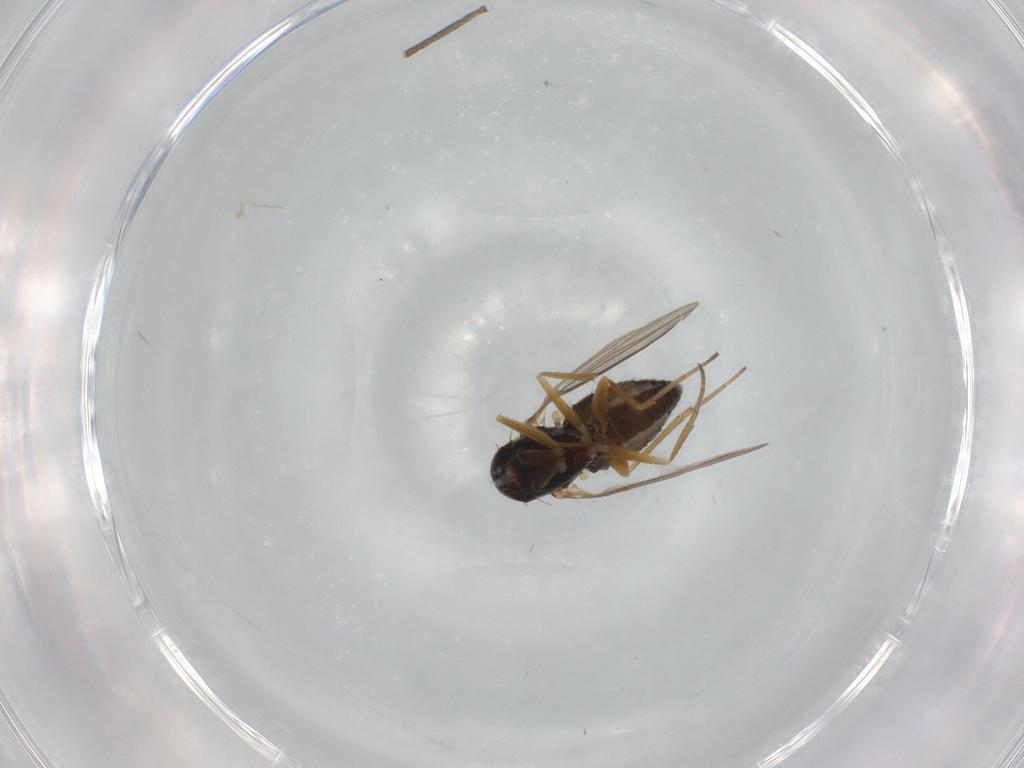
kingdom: Animalia
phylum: Arthropoda
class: Insecta
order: Diptera
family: Dolichopodidae
